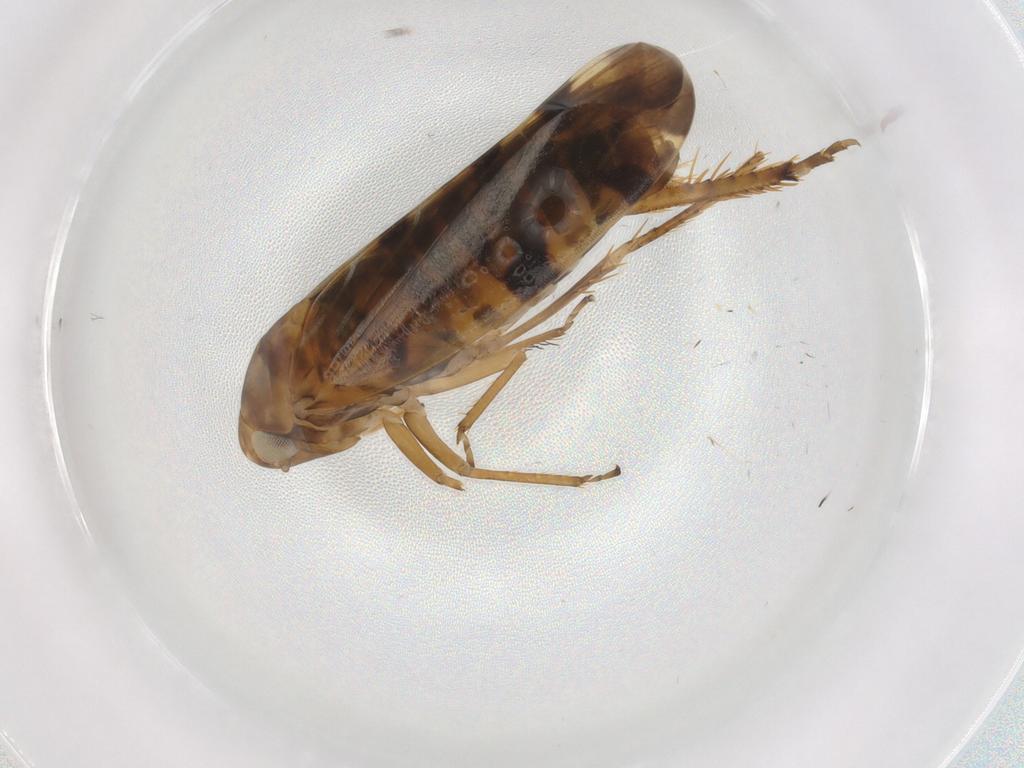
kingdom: Animalia
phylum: Arthropoda
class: Insecta
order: Hemiptera
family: Cicadellidae
